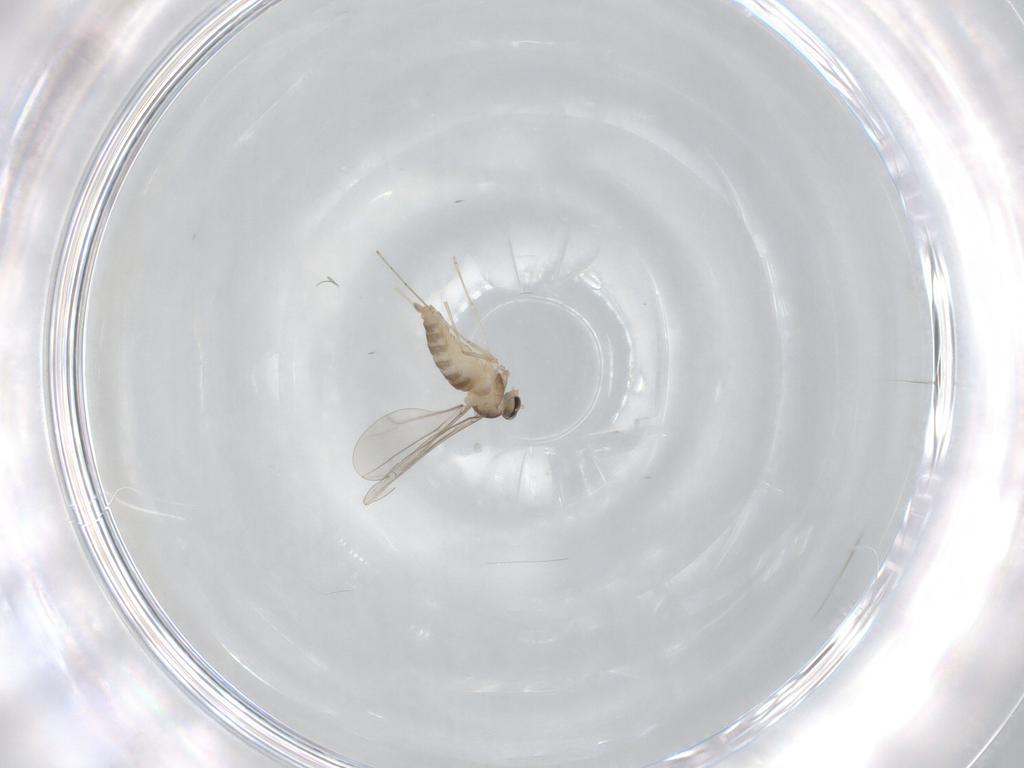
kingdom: Animalia
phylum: Arthropoda
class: Insecta
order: Diptera
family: Cecidomyiidae
